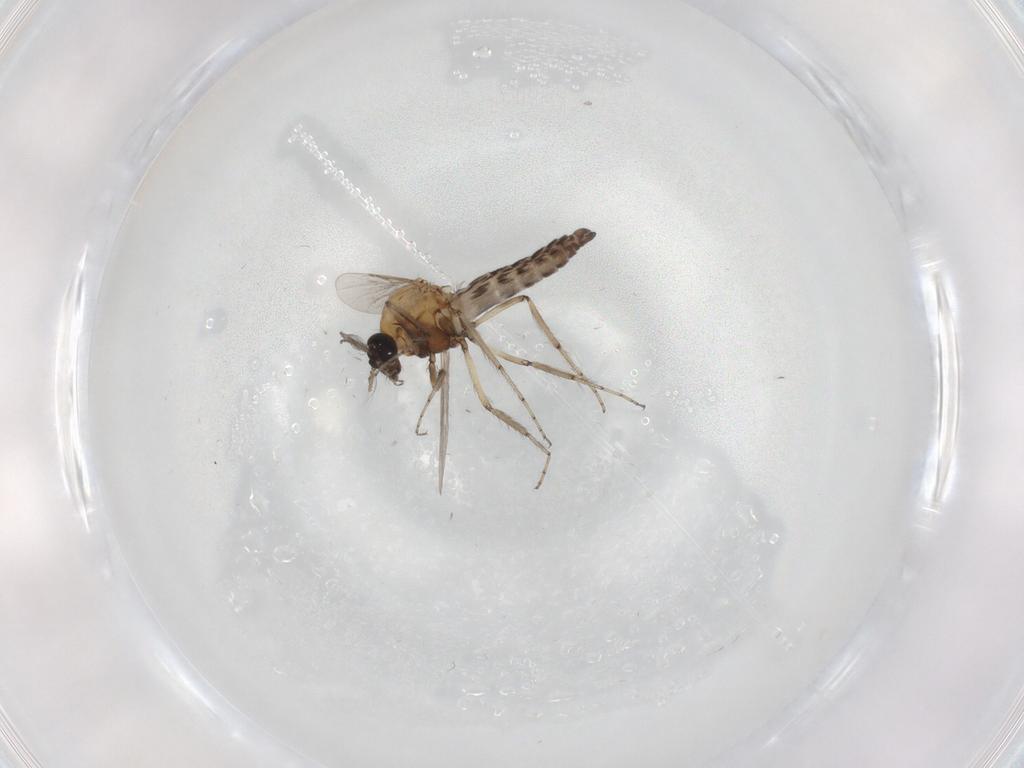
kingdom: Animalia
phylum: Arthropoda
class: Insecta
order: Diptera
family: Ceratopogonidae
